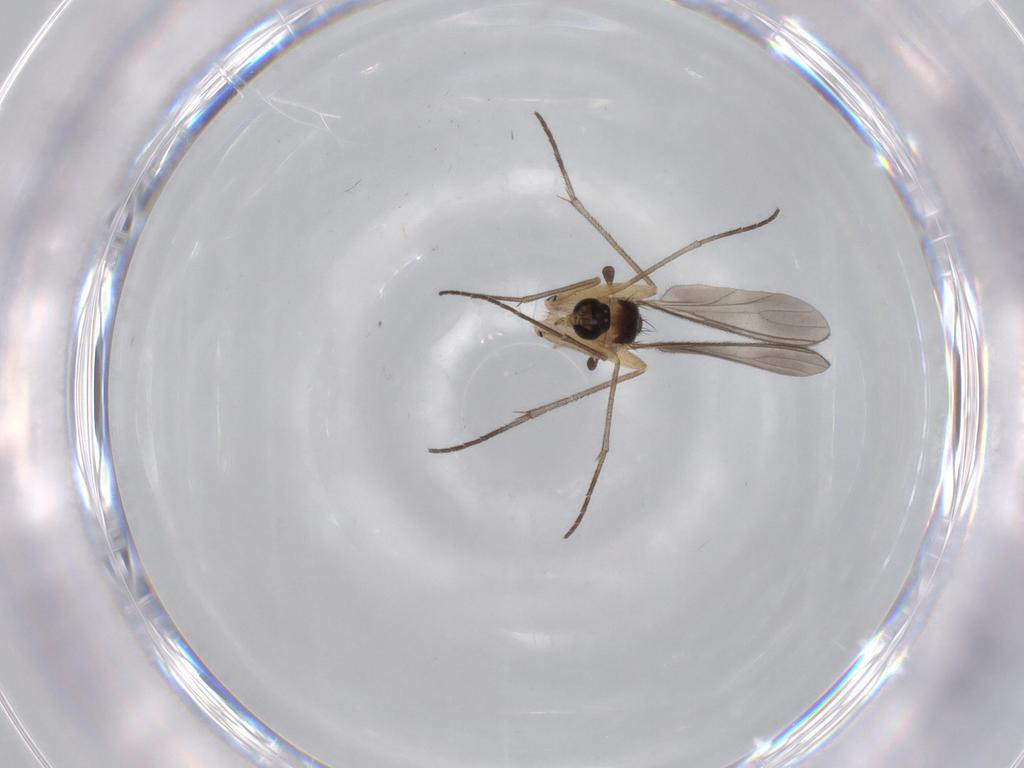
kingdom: Animalia
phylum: Arthropoda
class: Insecta
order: Diptera
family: Sciaridae
